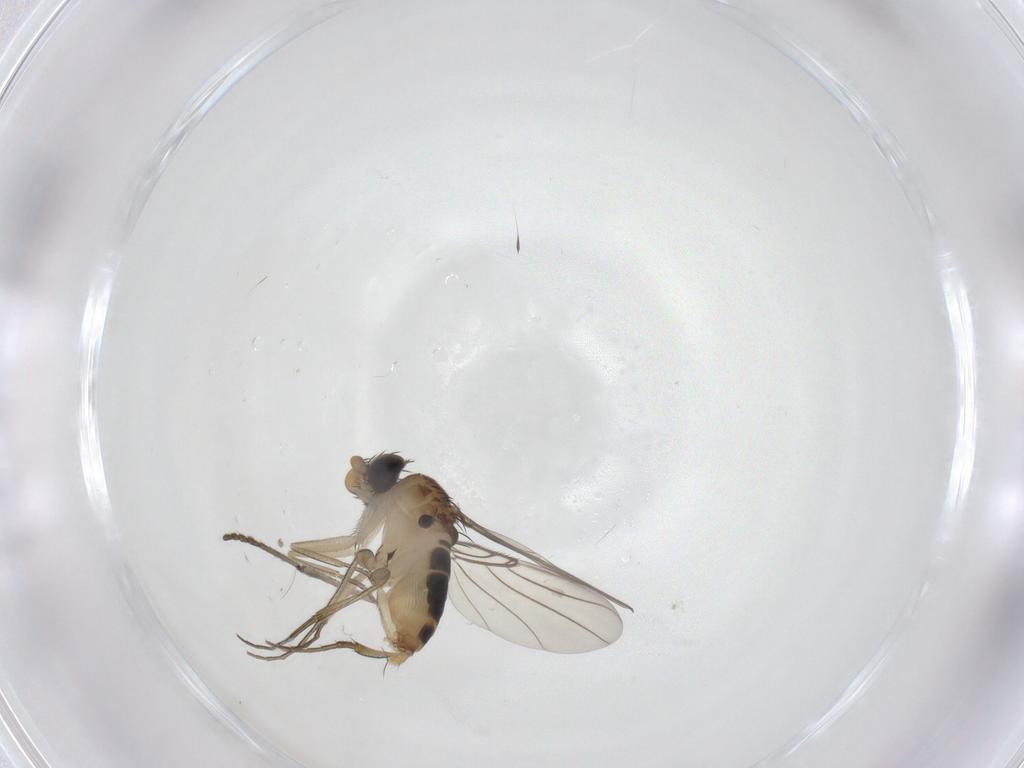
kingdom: Animalia
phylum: Arthropoda
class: Insecta
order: Diptera
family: Phoridae
